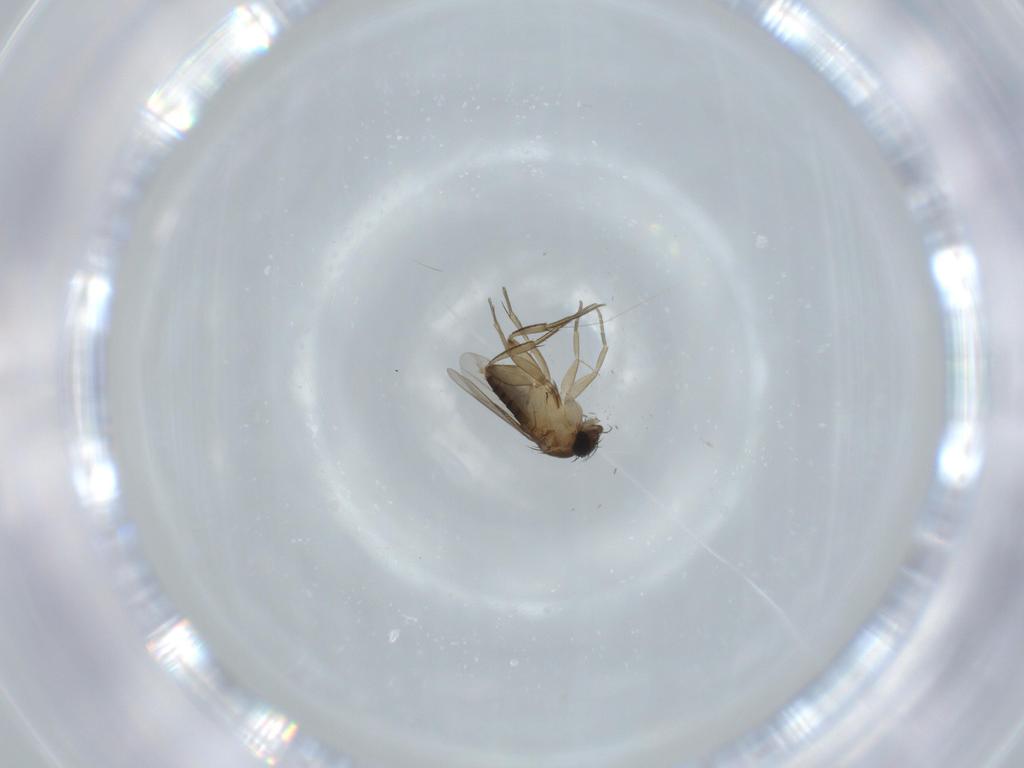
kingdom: Animalia
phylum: Arthropoda
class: Insecta
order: Diptera
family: Phoridae
